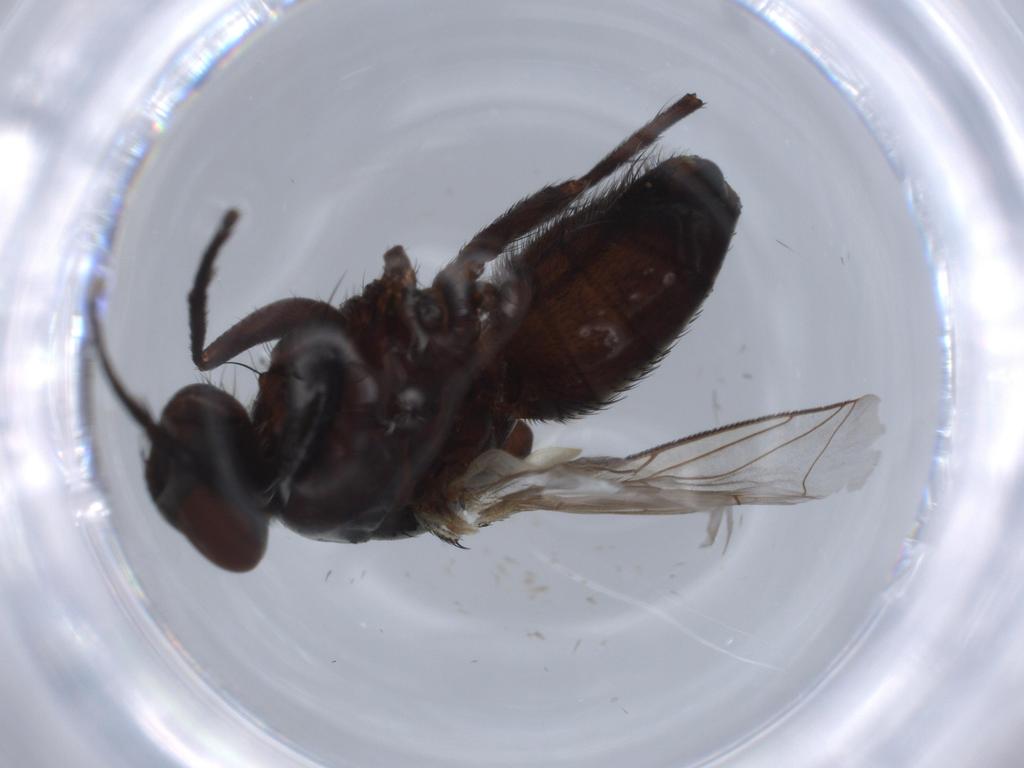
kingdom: Animalia
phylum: Arthropoda
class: Insecta
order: Diptera
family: Sarcophagidae
